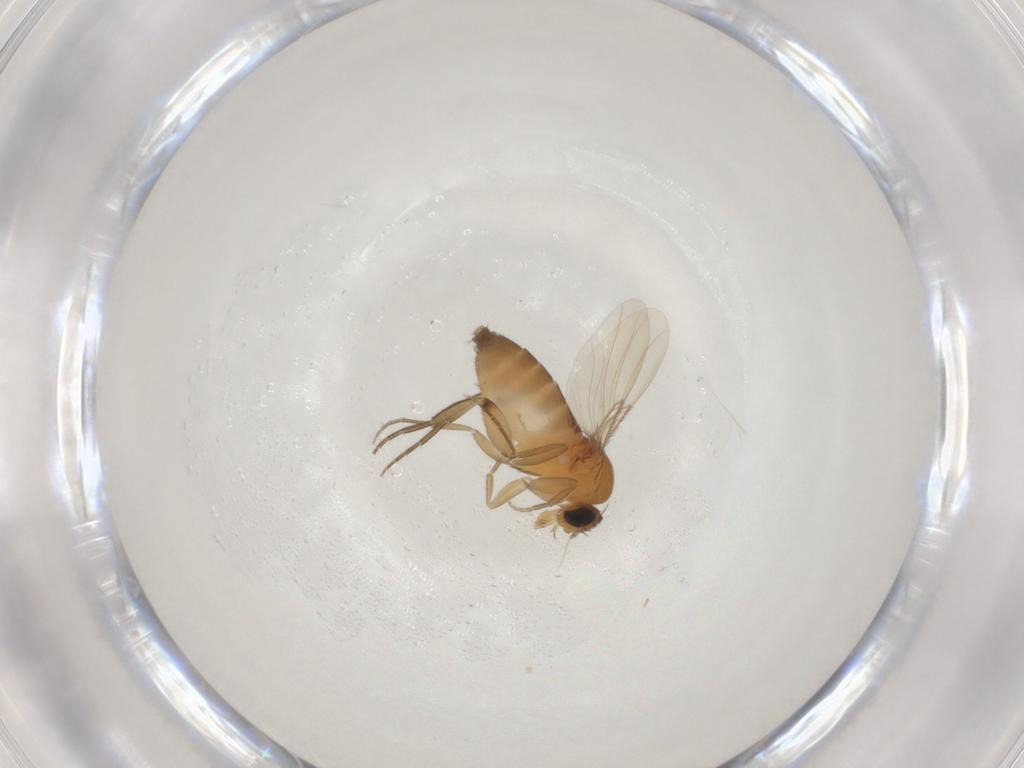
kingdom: Animalia
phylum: Arthropoda
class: Insecta
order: Diptera
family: Phoridae
